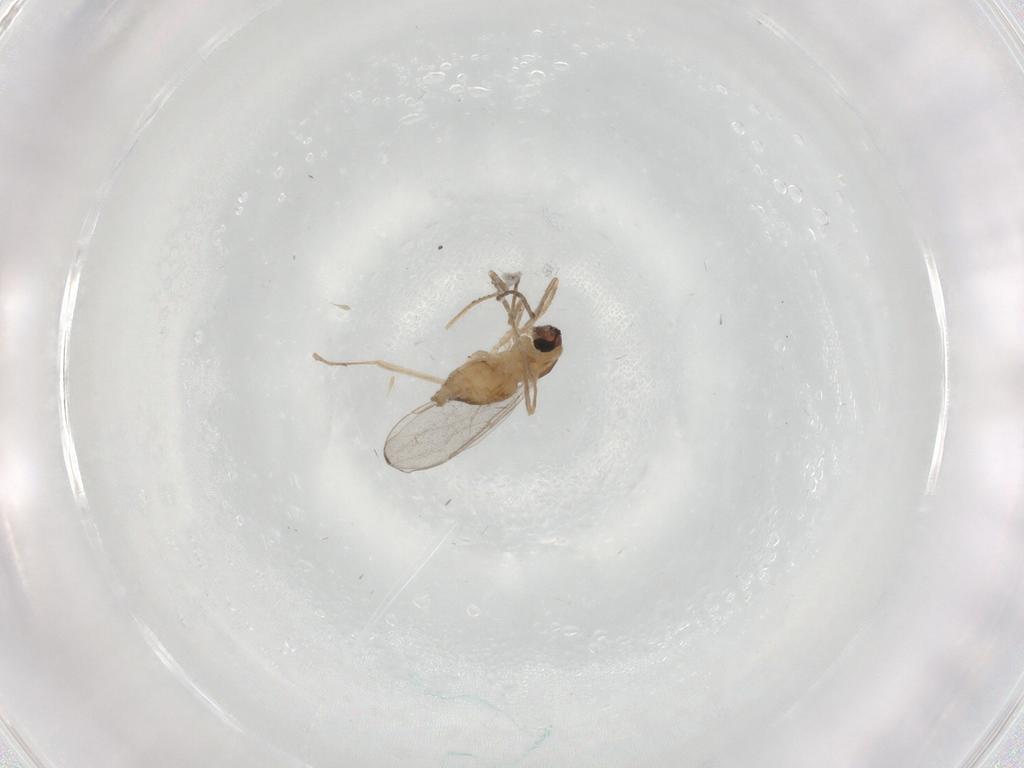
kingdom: Animalia
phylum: Arthropoda
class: Insecta
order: Diptera
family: Cecidomyiidae
